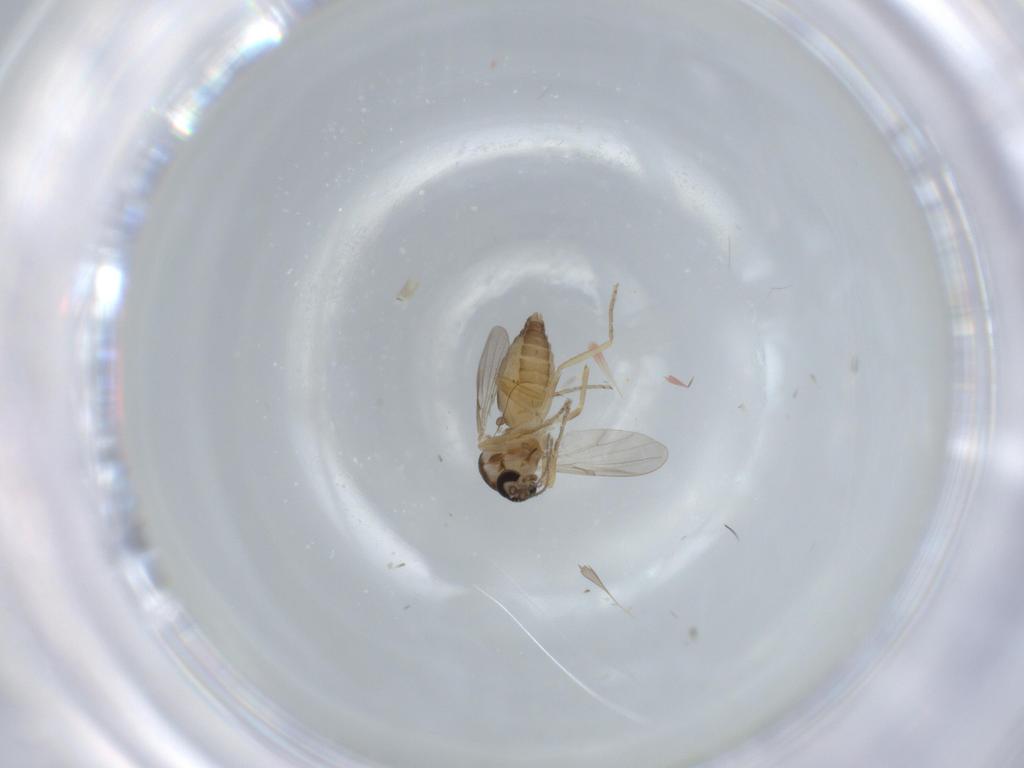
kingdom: Animalia
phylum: Arthropoda
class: Insecta
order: Diptera
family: Ceratopogonidae
